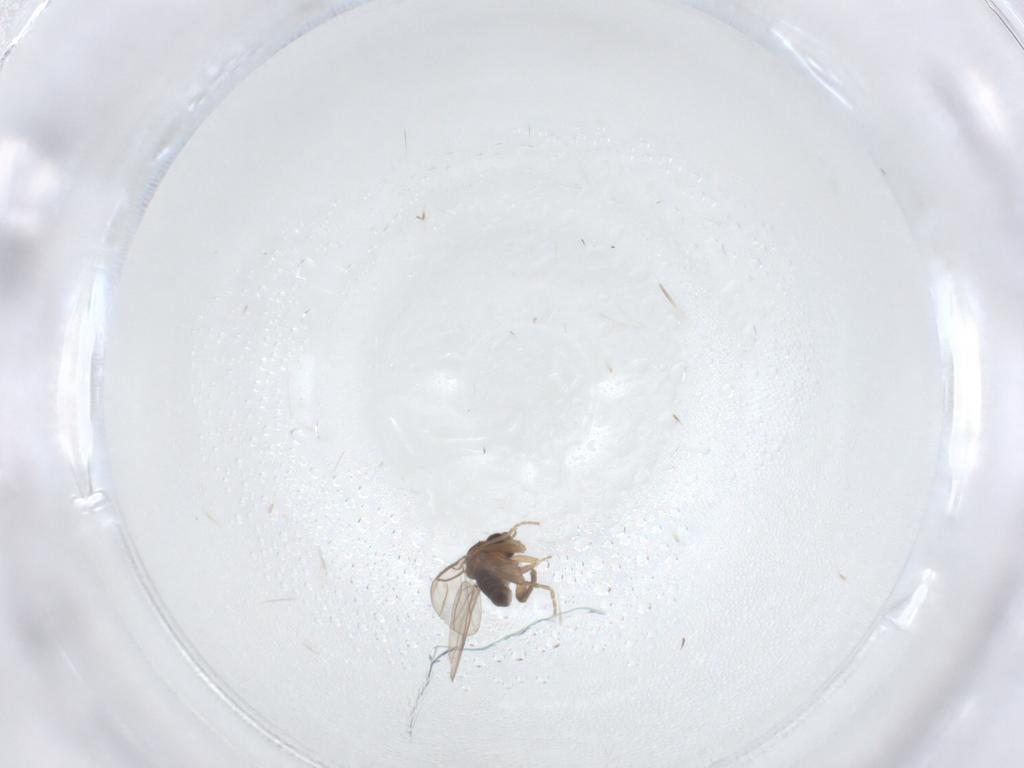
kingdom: Animalia
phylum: Arthropoda
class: Insecta
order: Diptera
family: Phoridae
